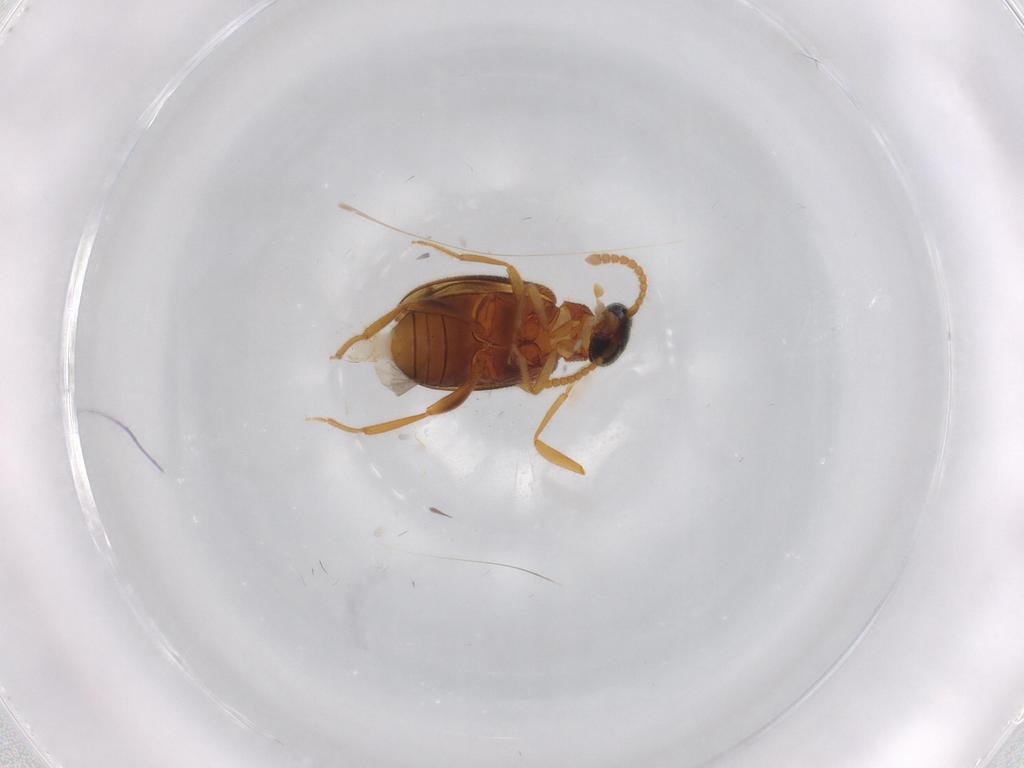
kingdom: Animalia
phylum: Arthropoda
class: Insecta
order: Coleoptera
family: Aderidae
